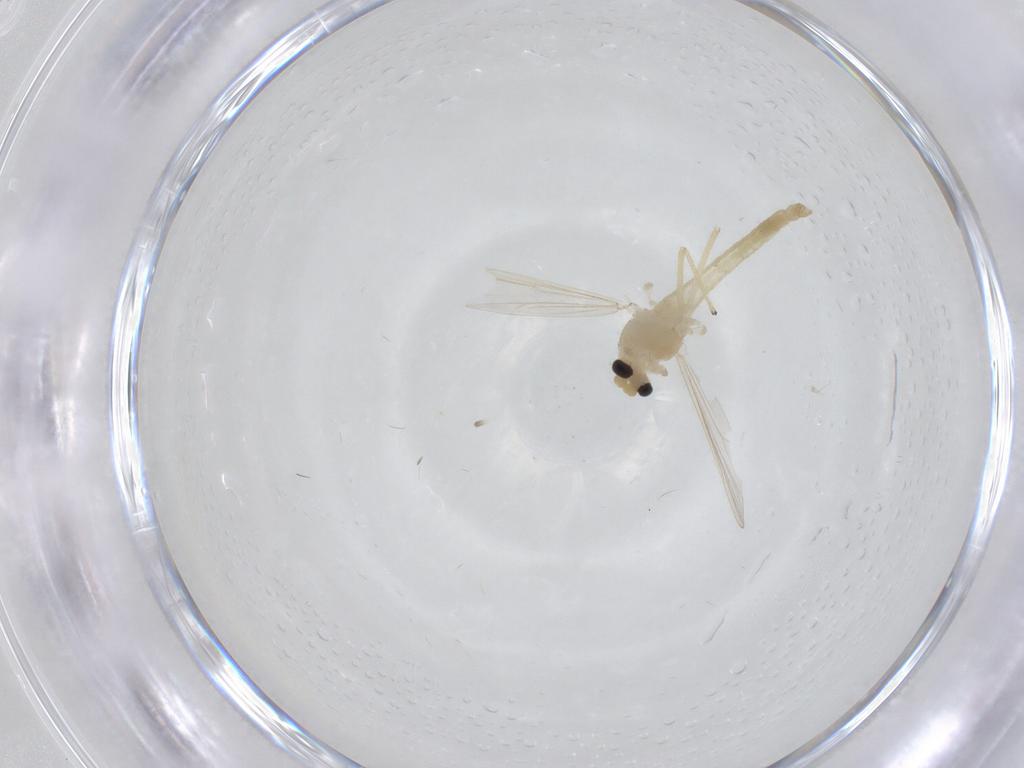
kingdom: Animalia
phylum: Arthropoda
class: Insecta
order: Diptera
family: Chironomidae
